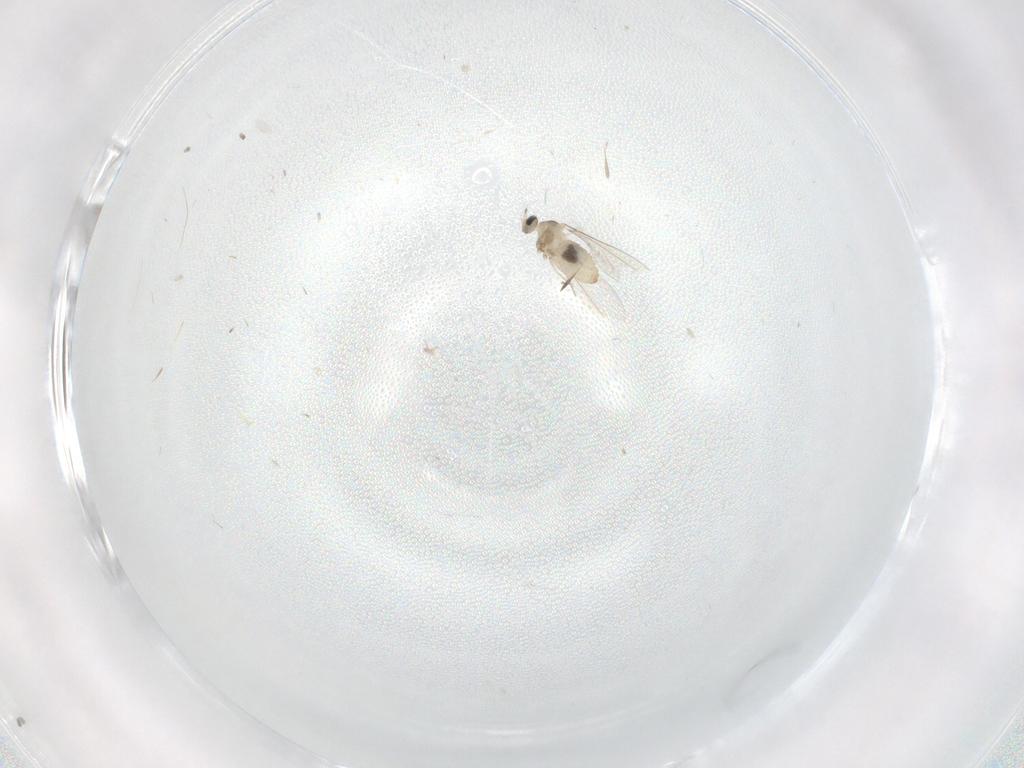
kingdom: Animalia
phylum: Arthropoda
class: Insecta
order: Diptera
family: Cecidomyiidae
